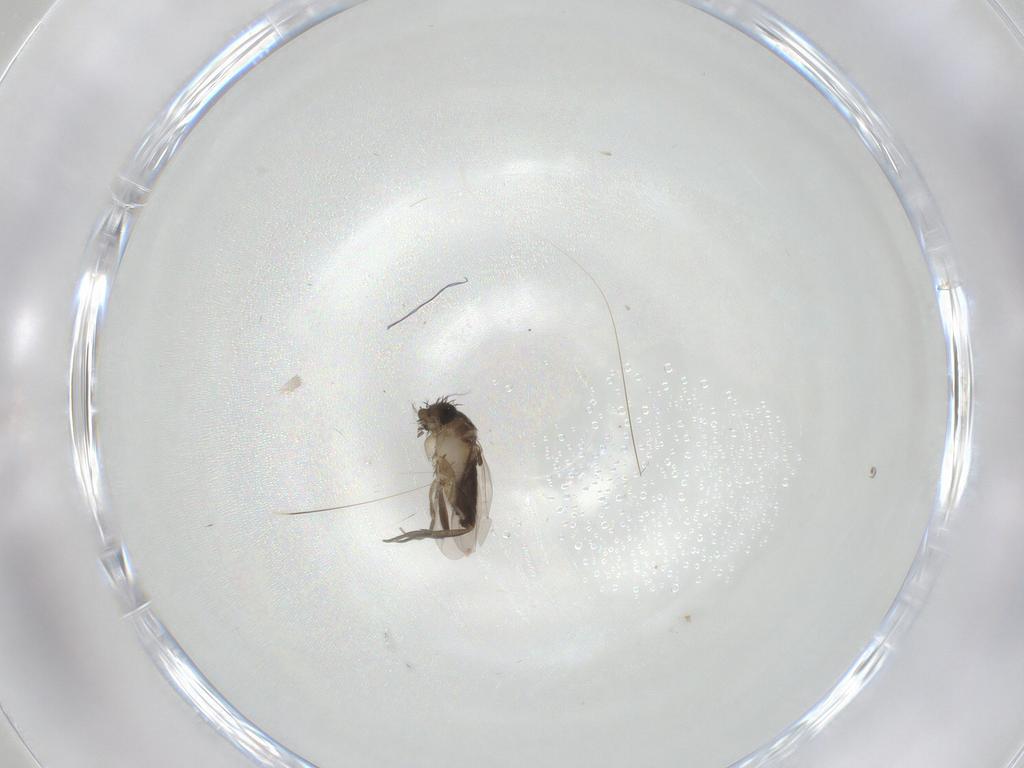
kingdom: Animalia
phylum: Arthropoda
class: Insecta
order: Diptera
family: Phoridae
